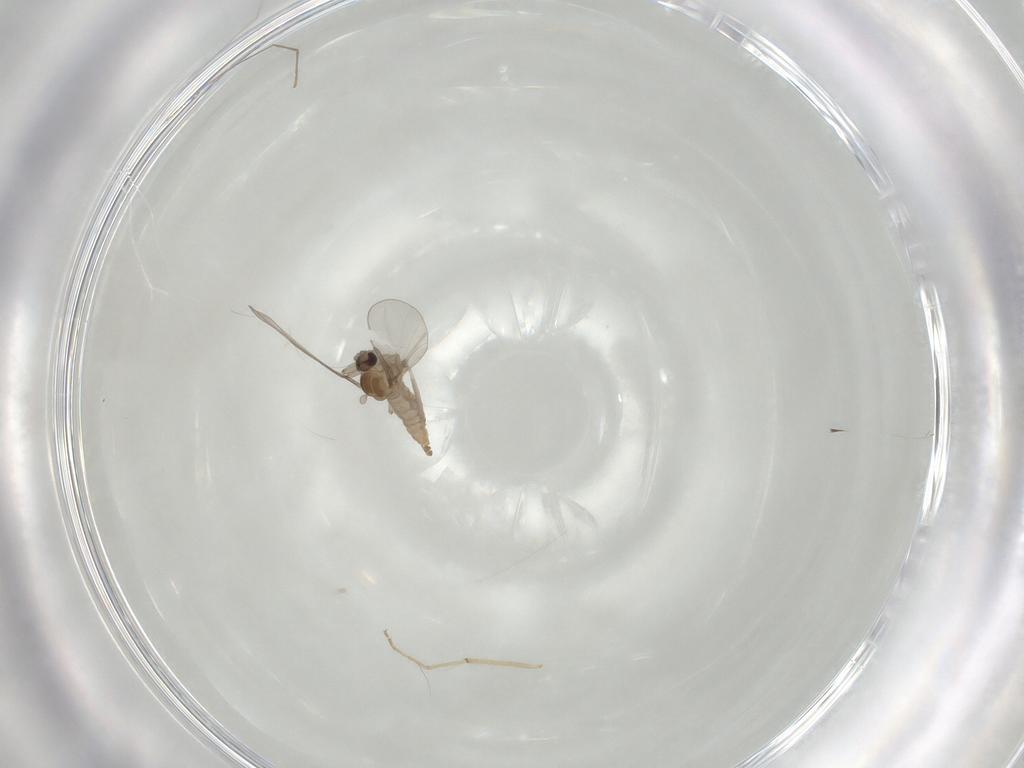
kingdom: Animalia
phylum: Arthropoda
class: Insecta
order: Diptera
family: Cecidomyiidae
